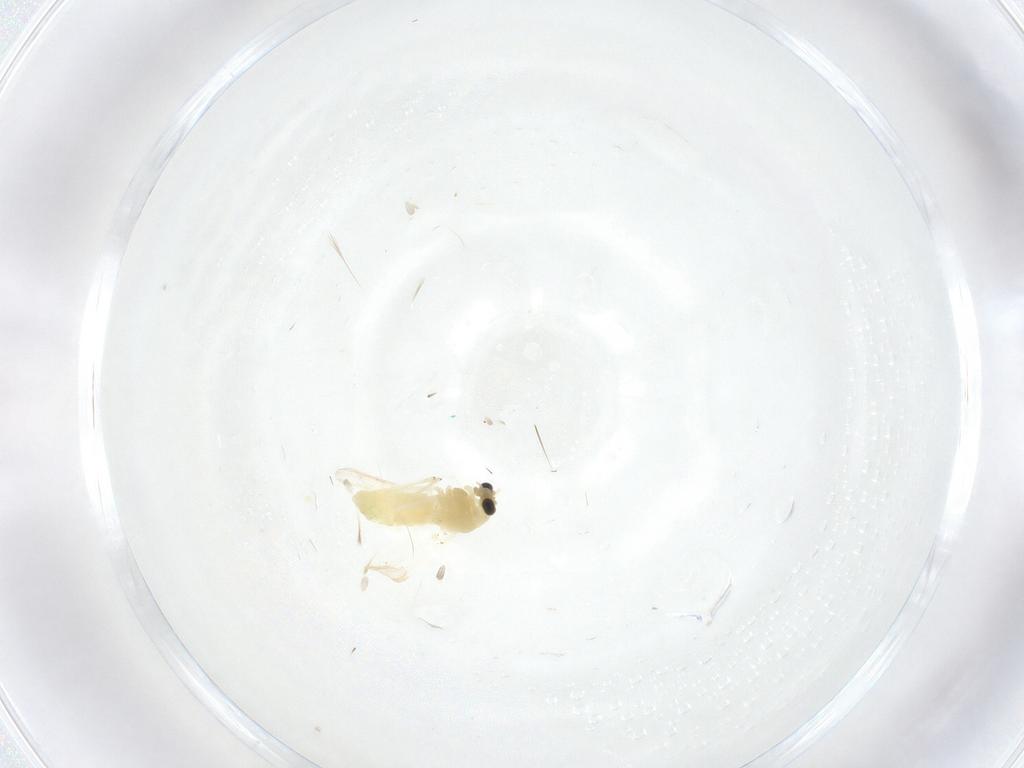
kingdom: Animalia
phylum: Arthropoda
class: Insecta
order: Diptera
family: Chironomidae
